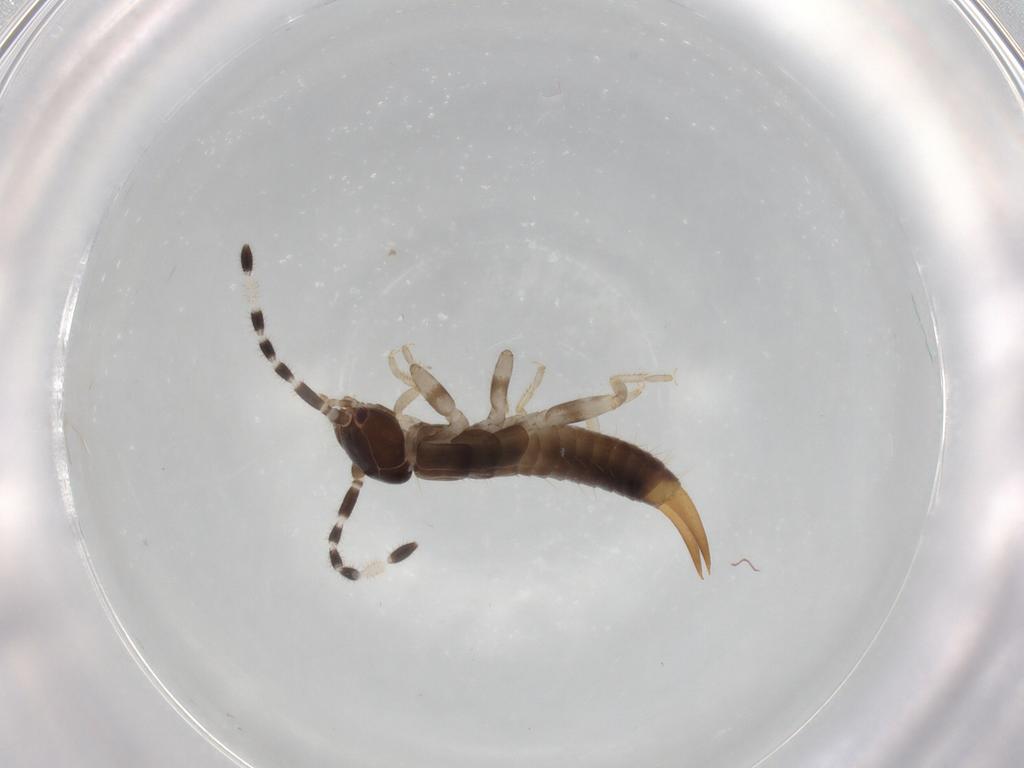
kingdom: Animalia
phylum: Arthropoda
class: Insecta
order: Dermaptera
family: Anisolabididae
